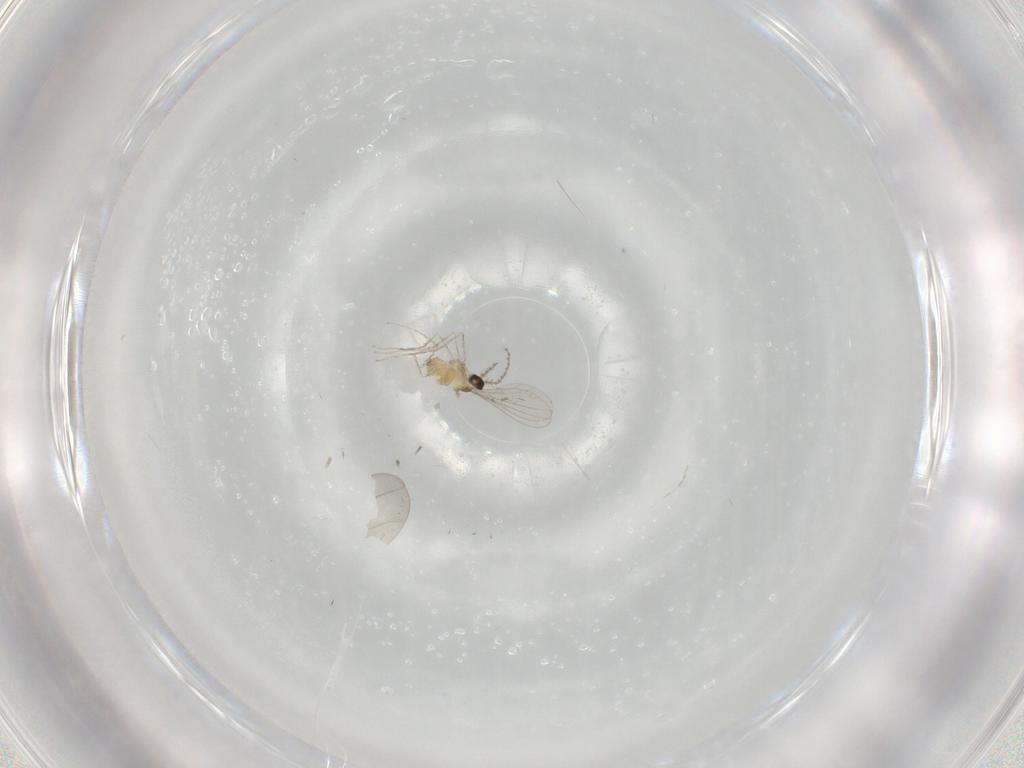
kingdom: Animalia
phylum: Arthropoda
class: Insecta
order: Diptera
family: Cecidomyiidae
